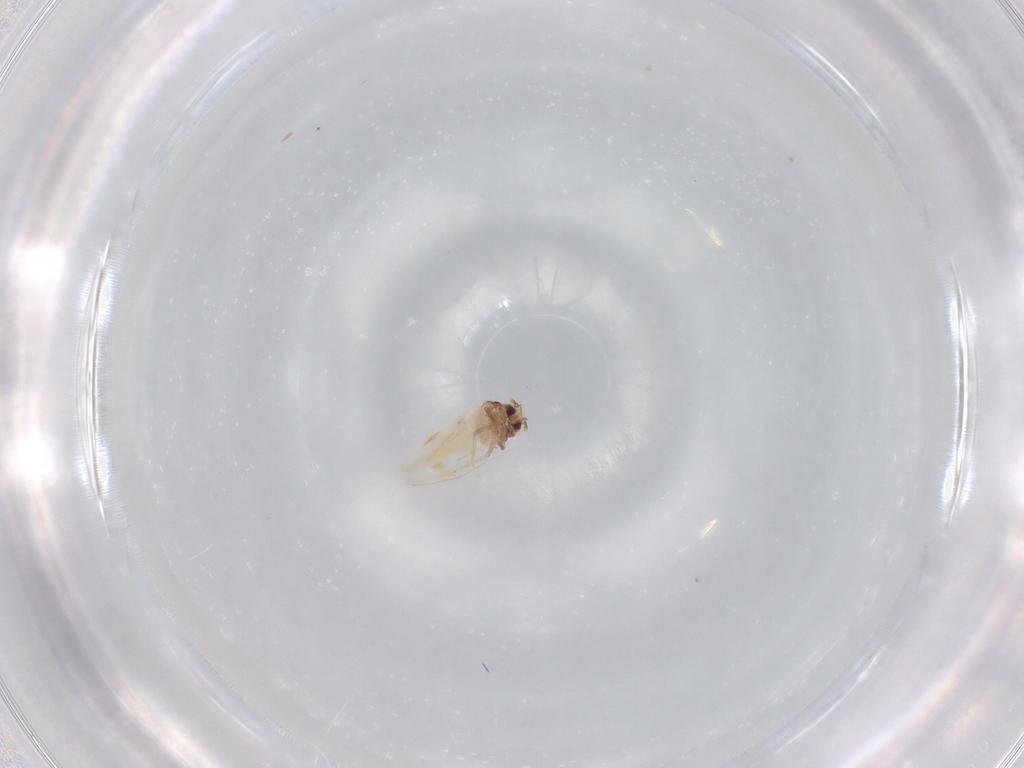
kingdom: Animalia
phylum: Arthropoda
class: Insecta
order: Hemiptera
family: Aleyrodidae
